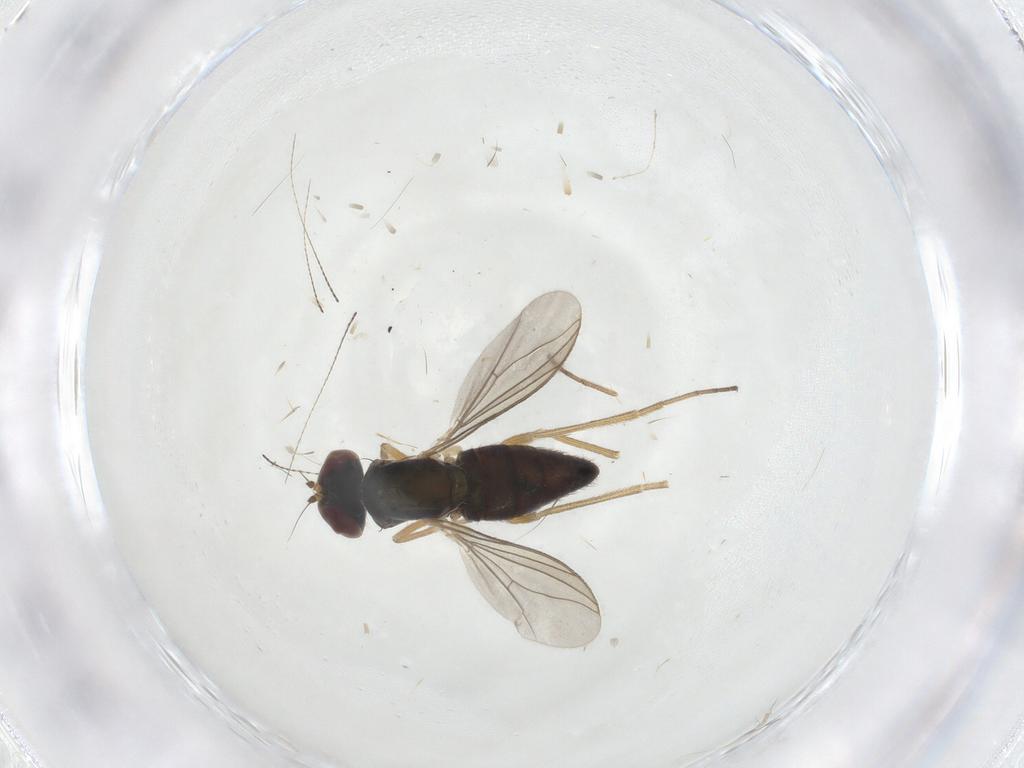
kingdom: Animalia
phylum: Arthropoda
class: Insecta
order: Diptera
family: Dolichopodidae
